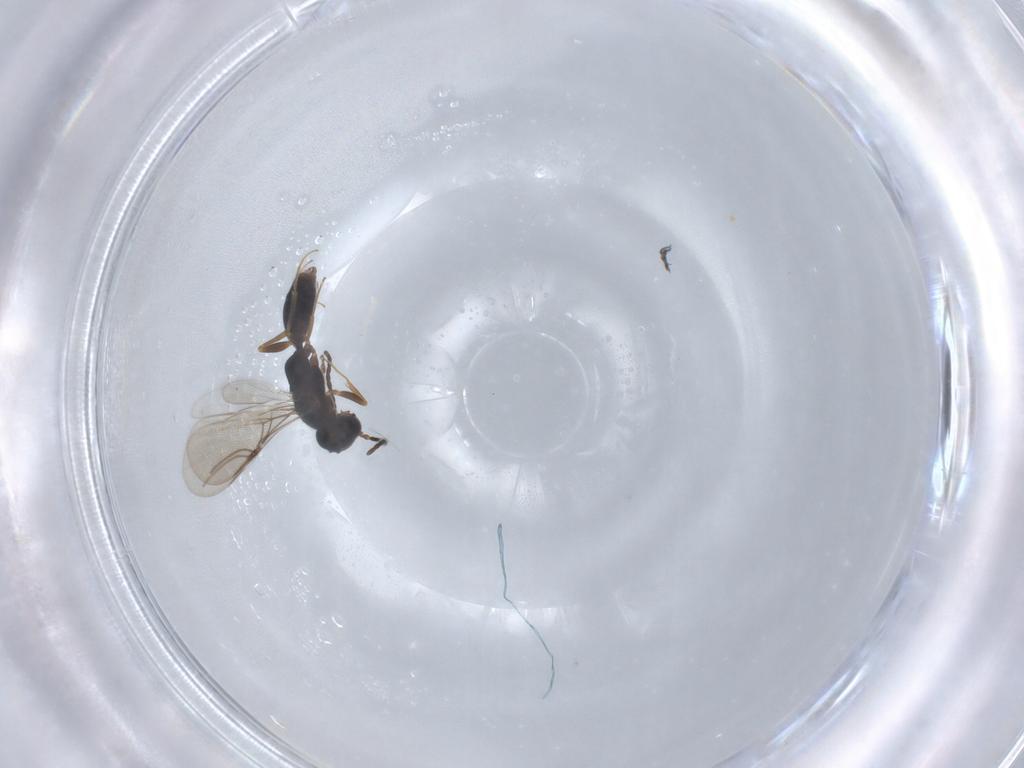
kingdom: Animalia
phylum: Arthropoda
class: Insecta
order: Hymenoptera
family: Bethylidae
